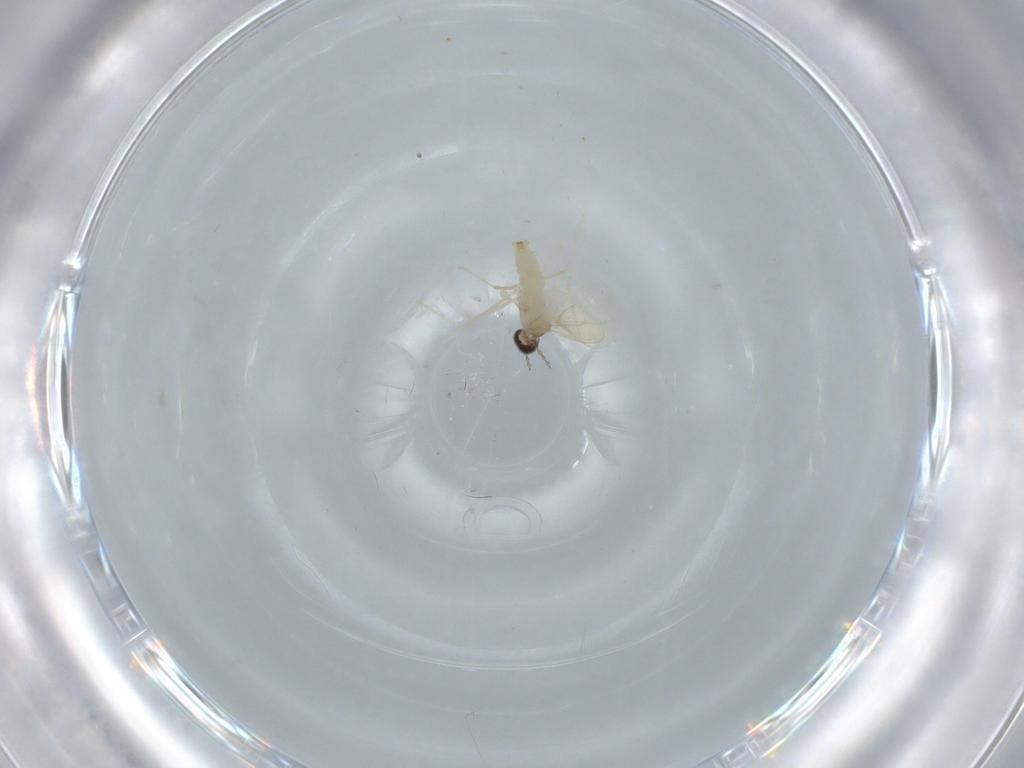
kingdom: Animalia
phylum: Arthropoda
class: Insecta
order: Diptera
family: Cecidomyiidae
